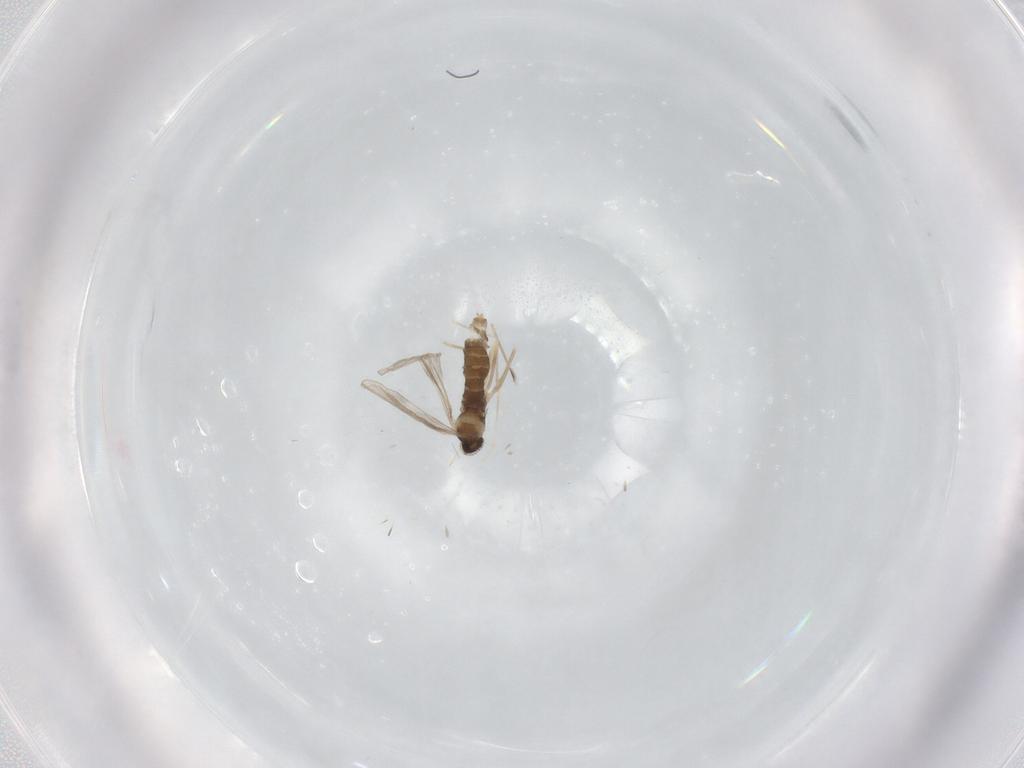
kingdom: Animalia
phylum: Arthropoda
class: Insecta
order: Diptera
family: Cecidomyiidae
